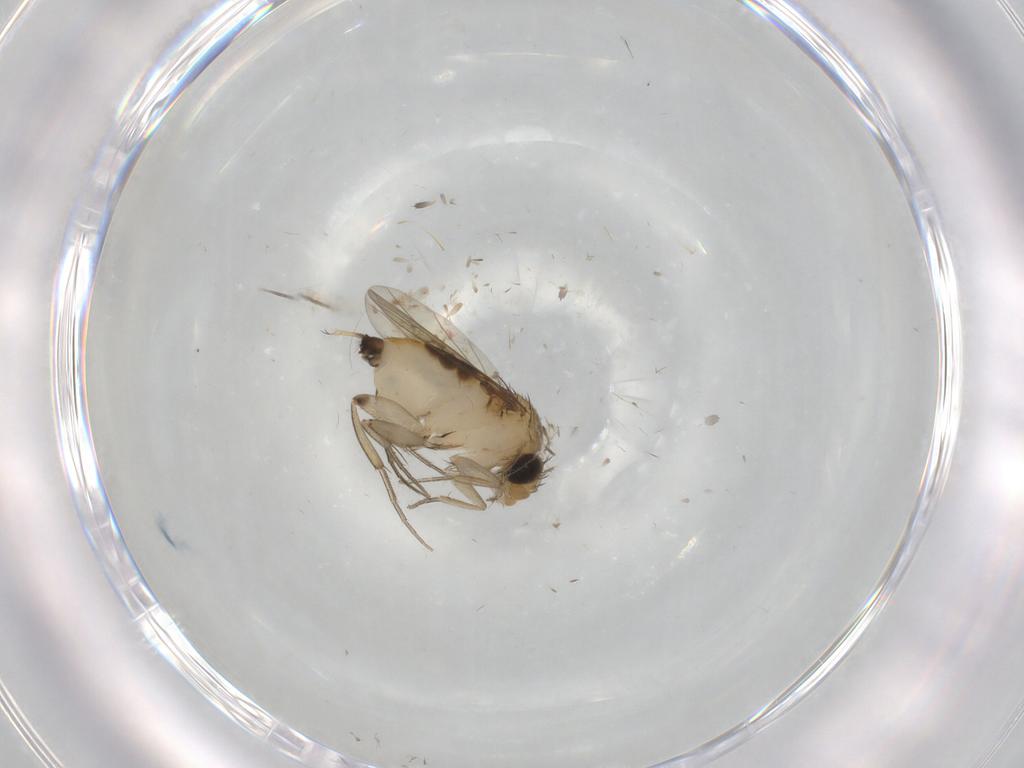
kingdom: Animalia
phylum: Arthropoda
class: Insecta
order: Diptera
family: Cecidomyiidae
